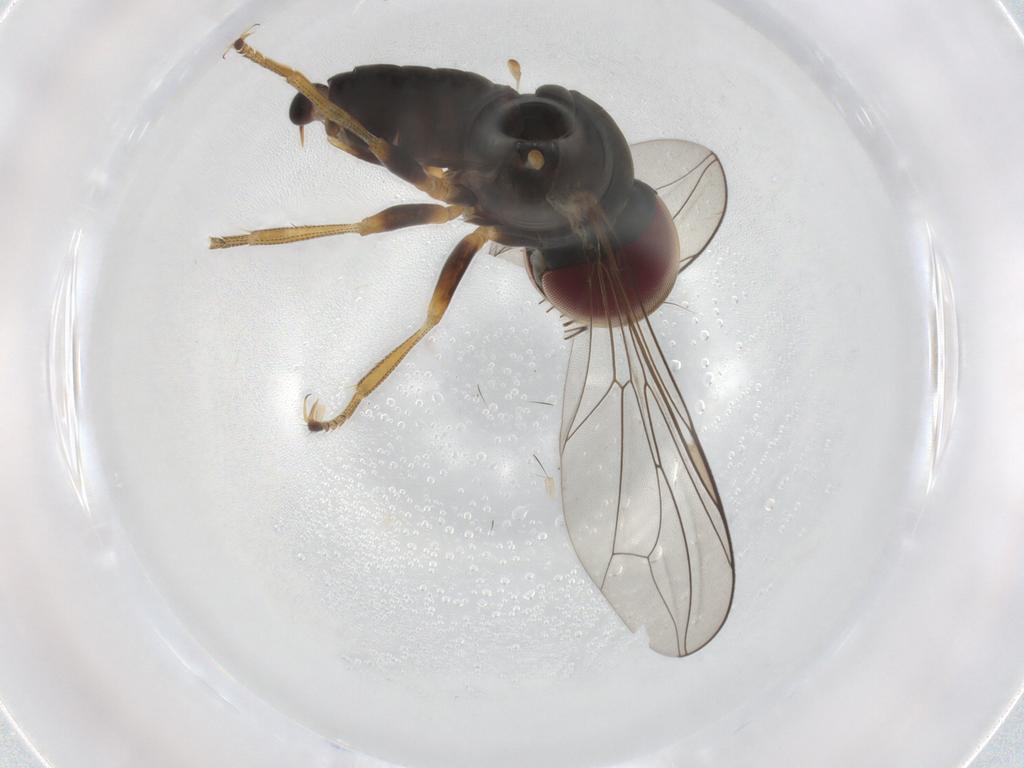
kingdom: Animalia
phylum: Arthropoda
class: Insecta
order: Diptera
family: Pipunculidae
